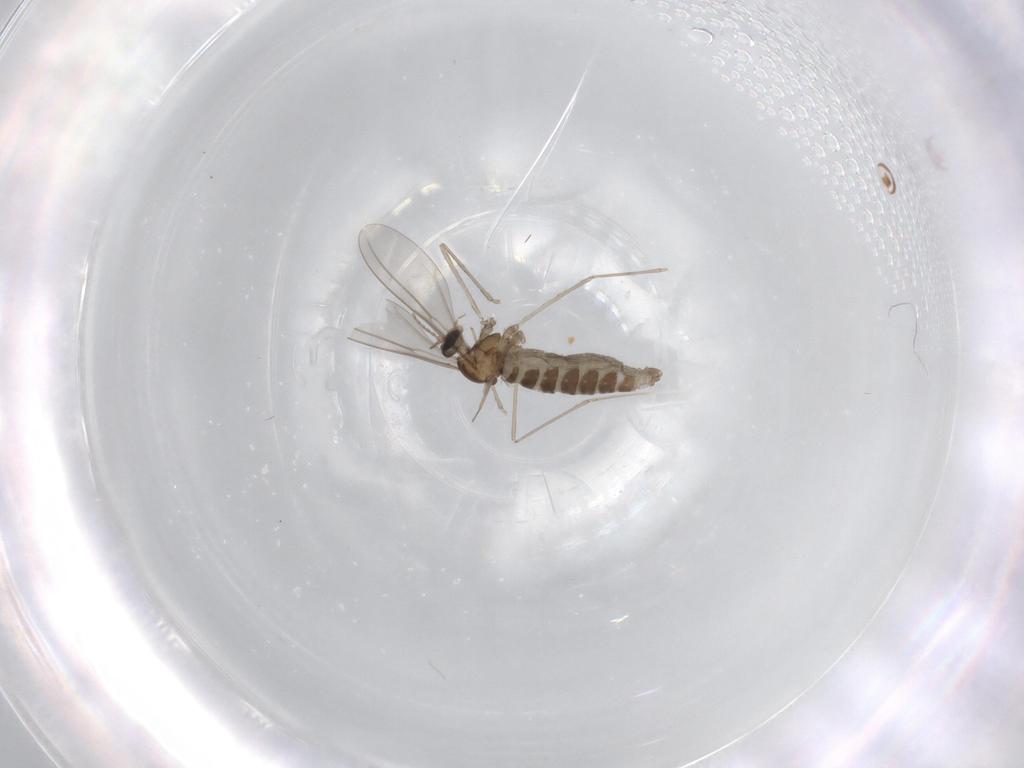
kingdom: Animalia
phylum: Arthropoda
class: Insecta
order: Diptera
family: Cecidomyiidae
